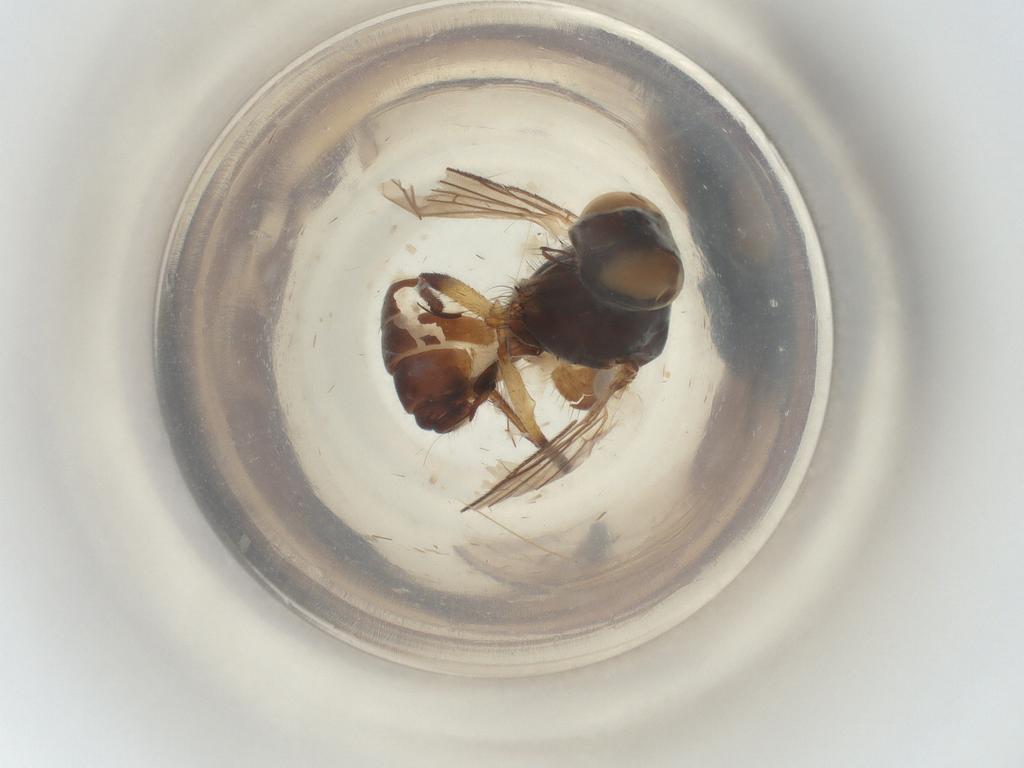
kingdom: Animalia
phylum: Arthropoda
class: Insecta
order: Diptera
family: Muscidae
